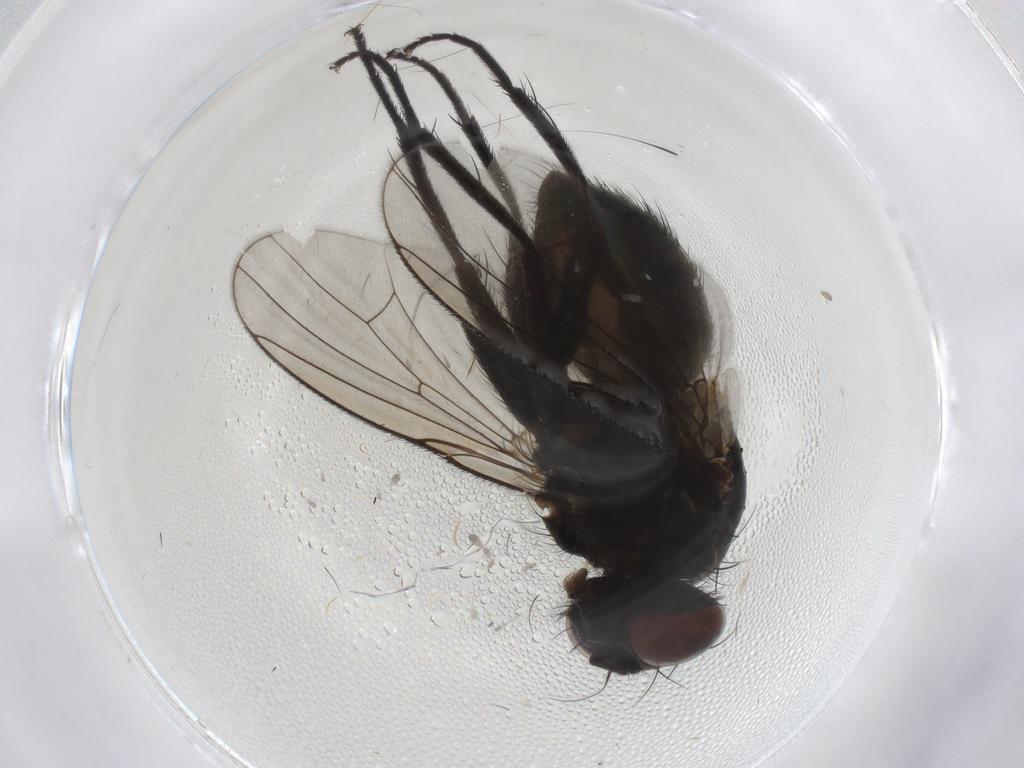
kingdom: Animalia
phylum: Arthropoda
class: Insecta
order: Diptera
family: Muscidae
